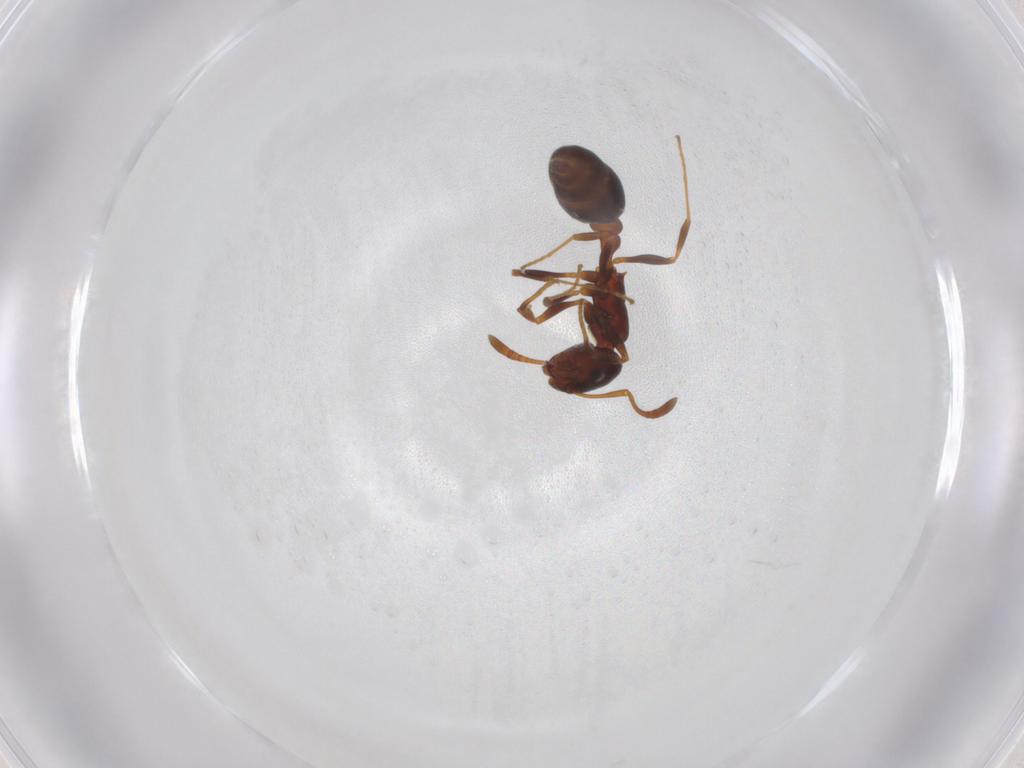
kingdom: Animalia
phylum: Arthropoda
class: Insecta
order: Hymenoptera
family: Formicidae
